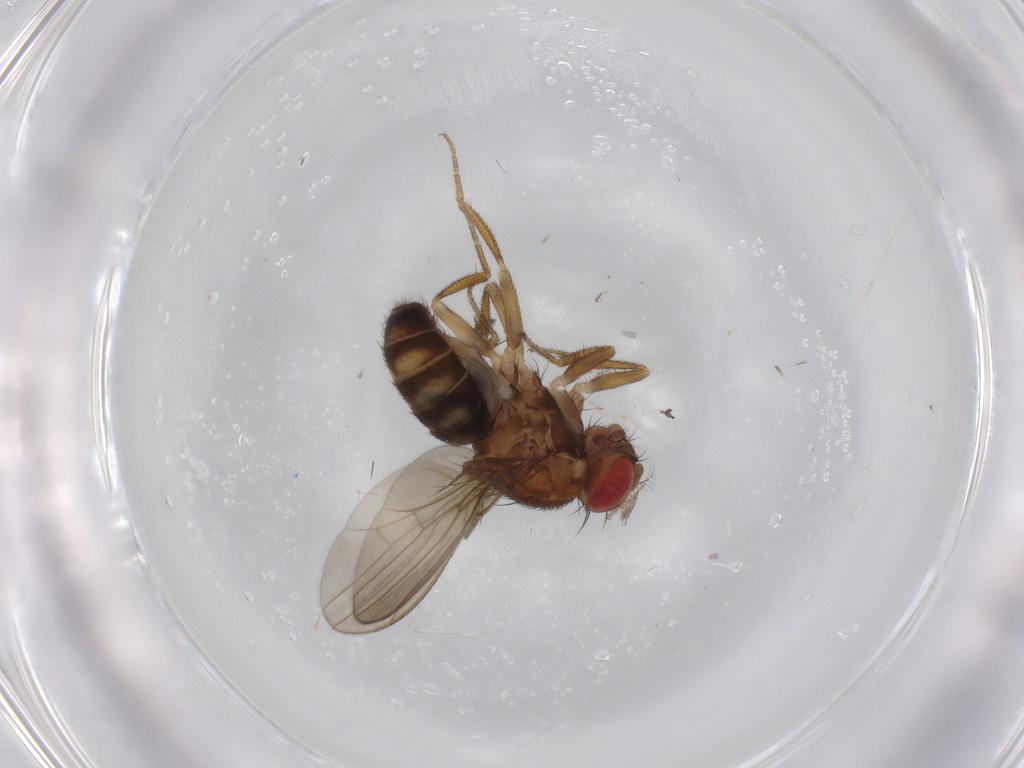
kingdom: Animalia
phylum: Arthropoda
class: Insecta
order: Diptera
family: Drosophilidae
